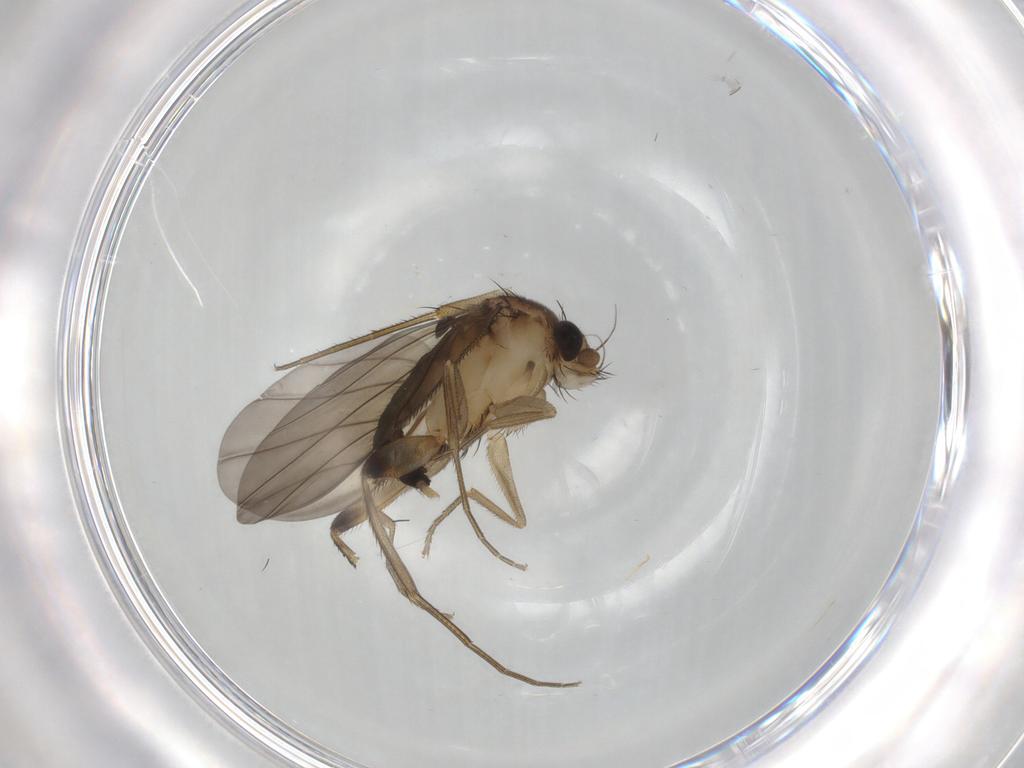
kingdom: Animalia
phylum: Arthropoda
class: Insecta
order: Diptera
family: Phoridae
